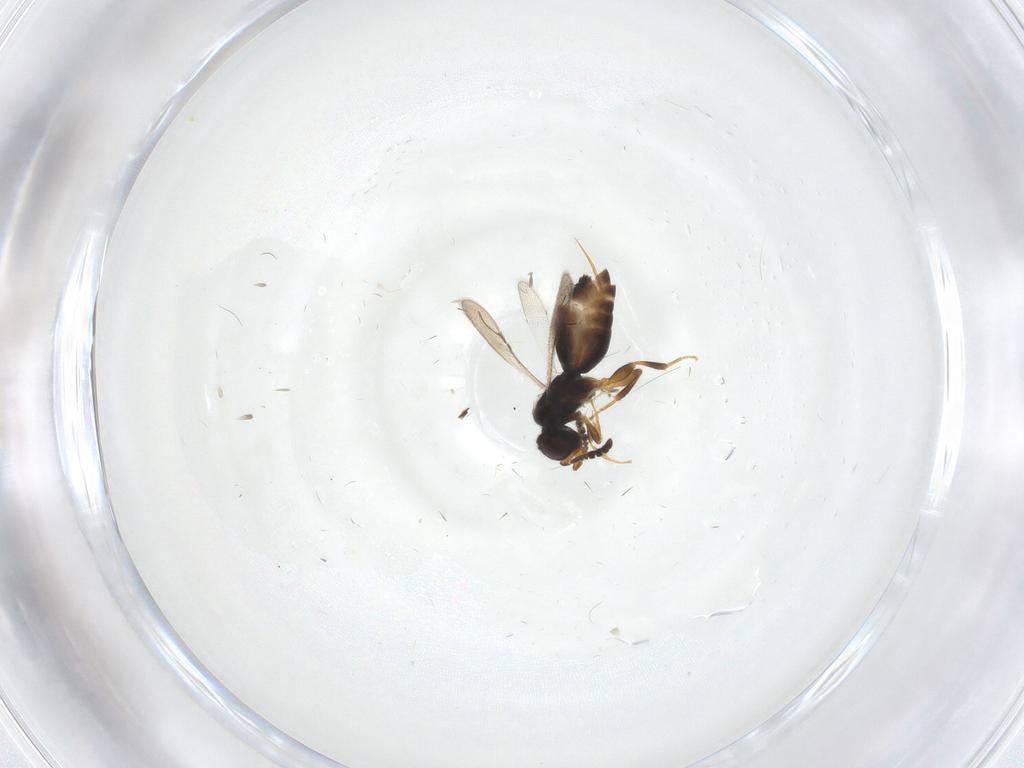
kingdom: Animalia
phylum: Arthropoda
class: Insecta
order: Hymenoptera
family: Ceraphronidae
